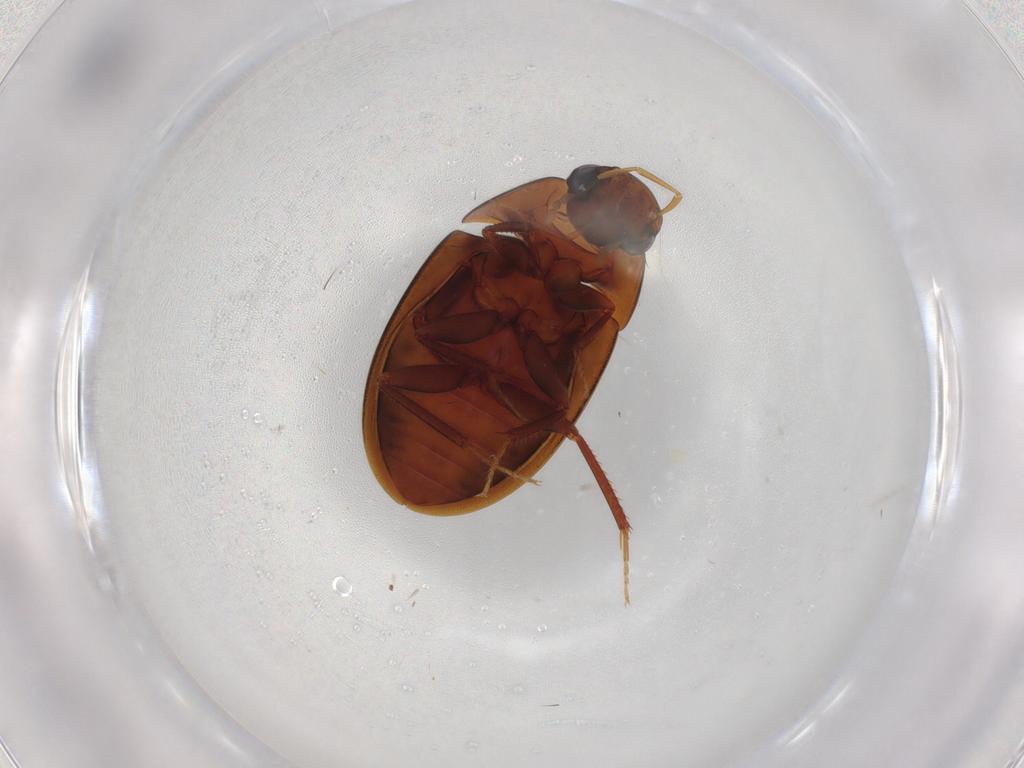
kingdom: Animalia
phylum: Arthropoda
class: Insecta
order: Coleoptera
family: Hydrophilidae
